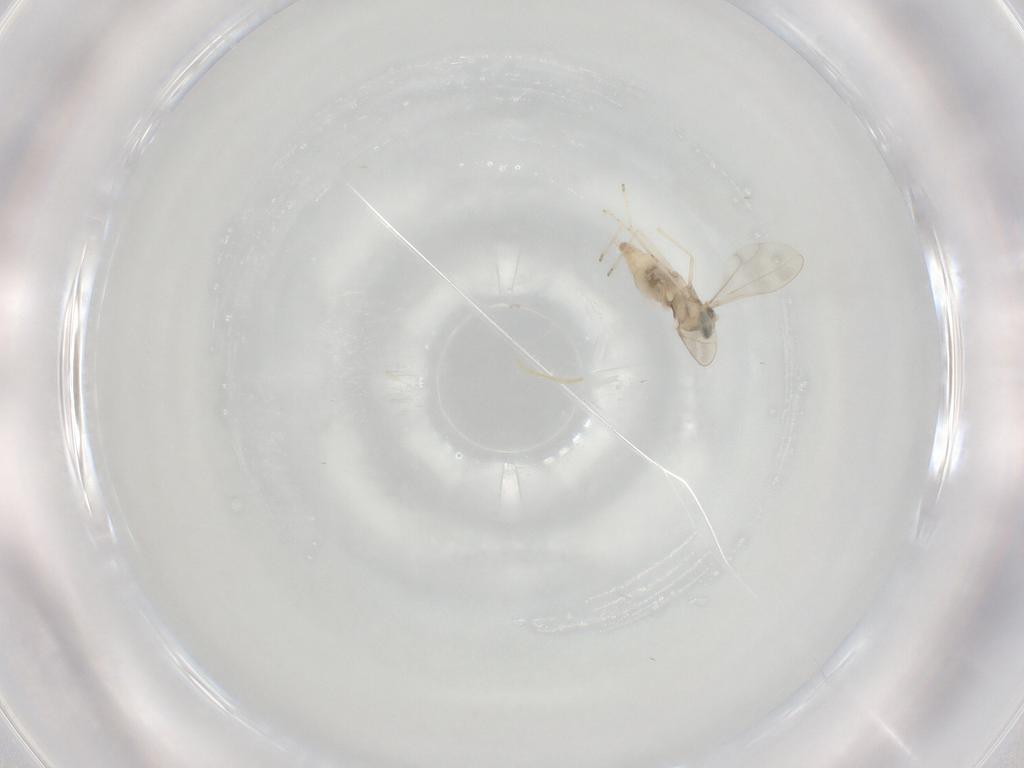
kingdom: Animalia
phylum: Arthropoda
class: Insecta
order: Diptera
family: Cecidomyiidae
